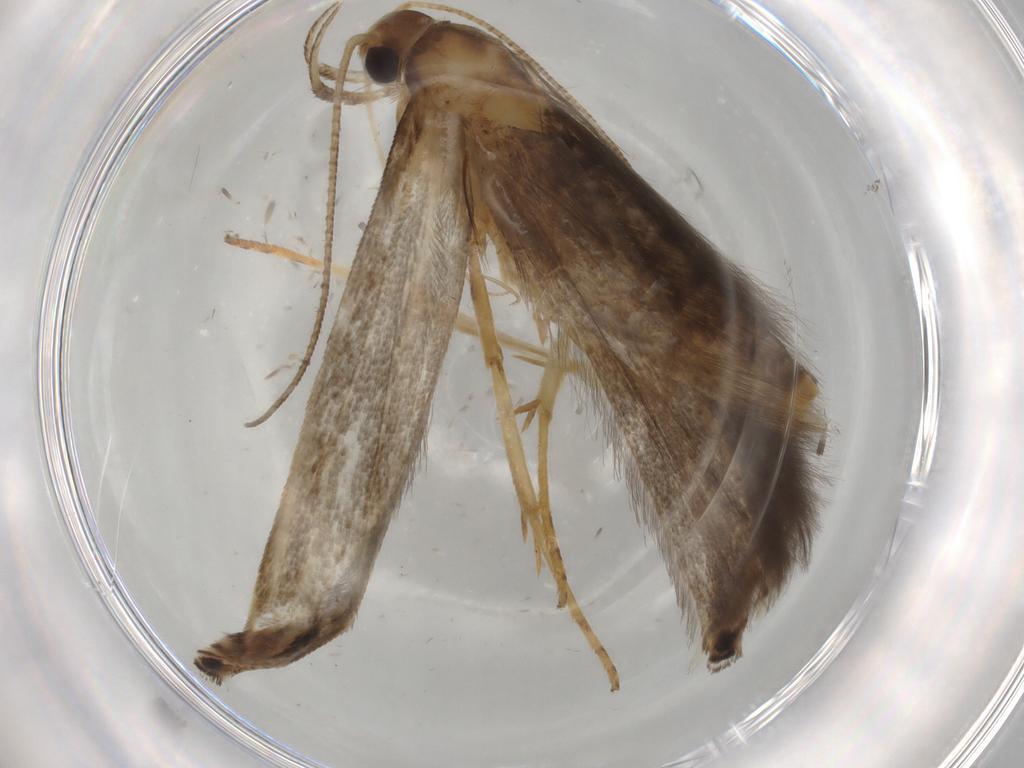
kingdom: Animalia
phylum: Arthropoda
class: Insecta
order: Lepidoptera
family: Gelechiidae
